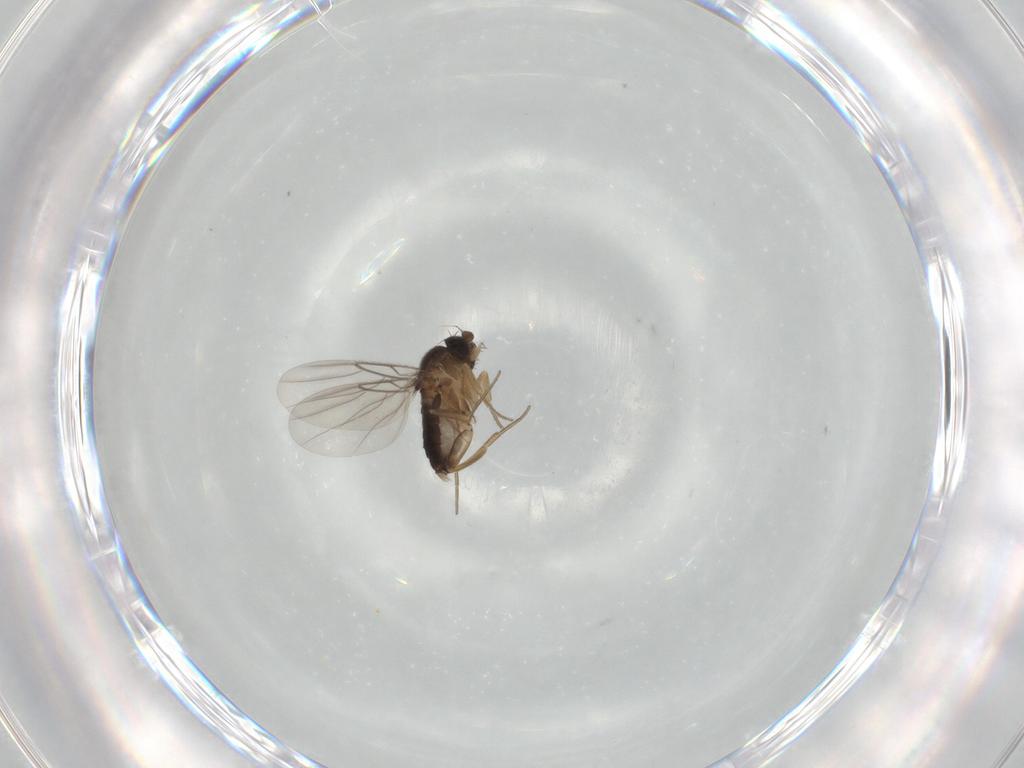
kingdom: Animalia
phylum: Arthropoda
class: Insecta
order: Diptera
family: Phoridae
